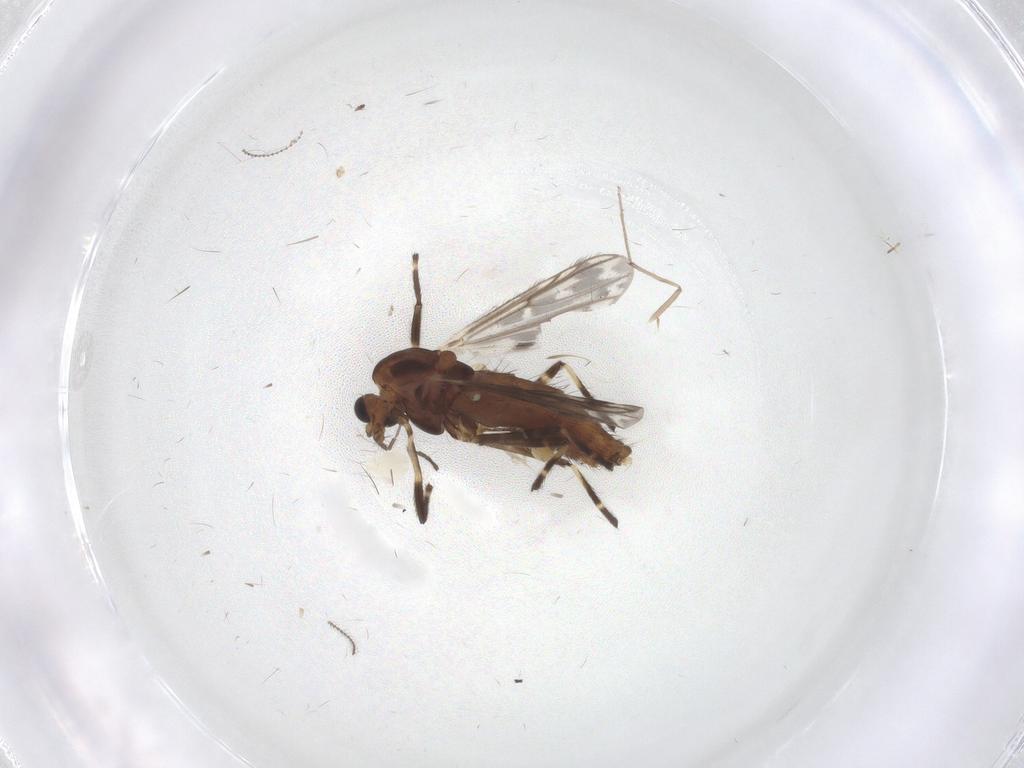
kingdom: Animalia
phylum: Arthropoda
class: Insecta
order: Diptera
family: Chironomidae
